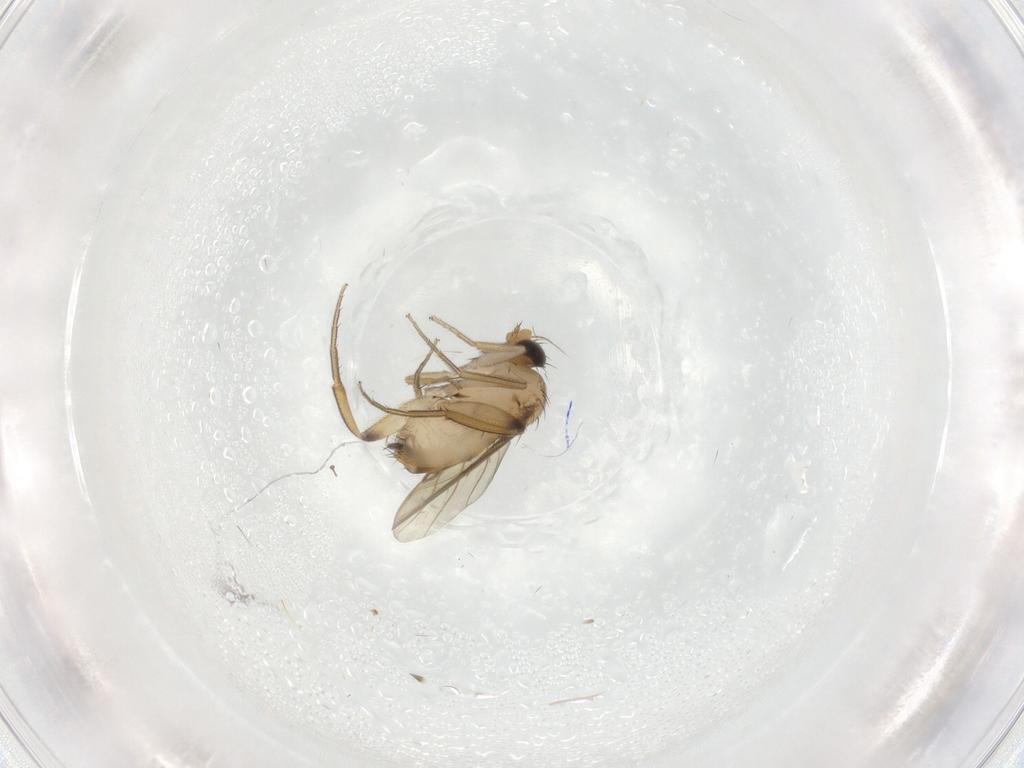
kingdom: Animalia
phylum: Arthropoda
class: Insecta
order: Diptera
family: Phoridae
